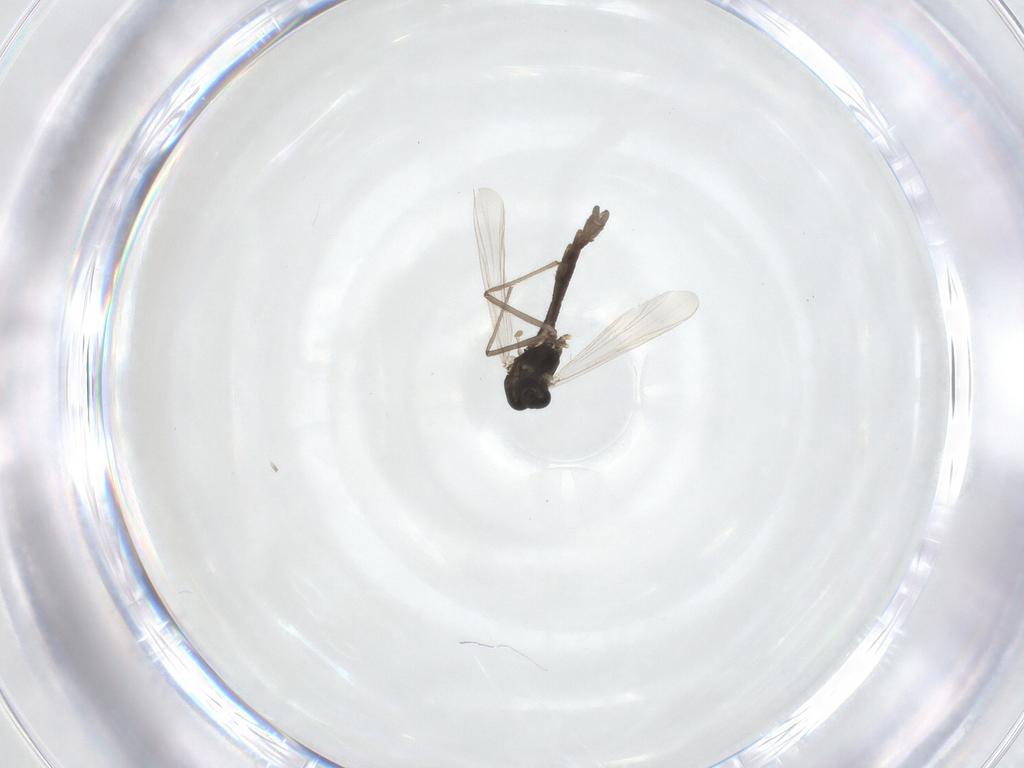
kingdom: Animalia
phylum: Arthropoda
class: Insecta
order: Diptera
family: Chironomidae
